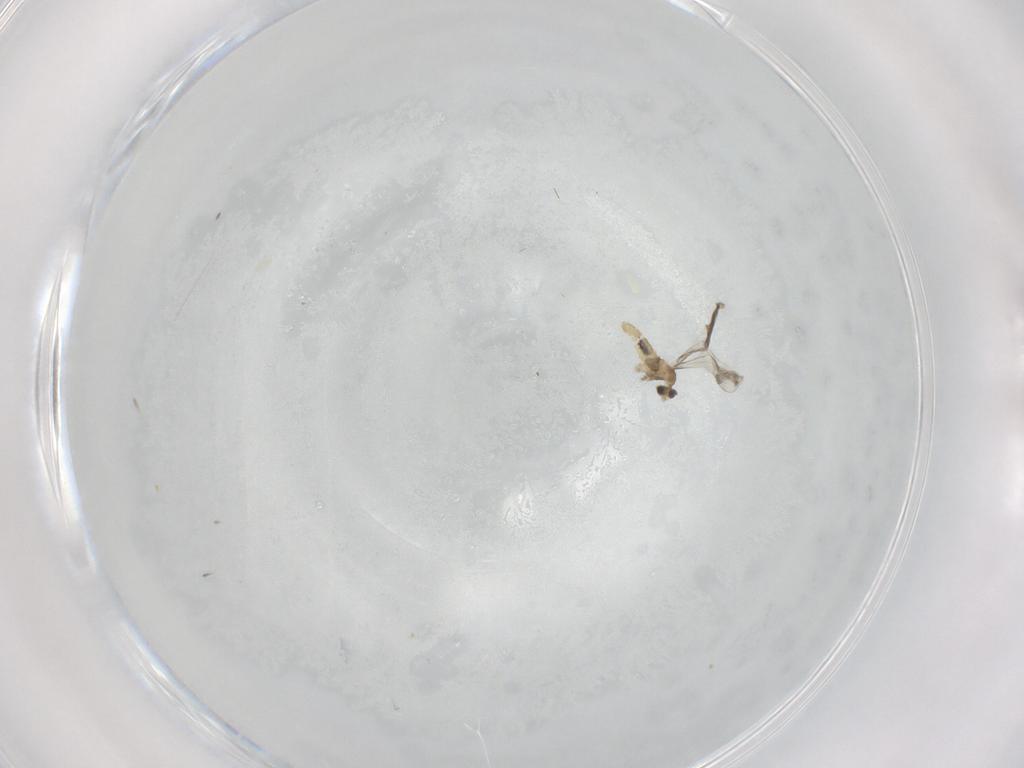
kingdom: Animalia
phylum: Arthropoda
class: Insecta
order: Diptera
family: Cecidomyiidae
